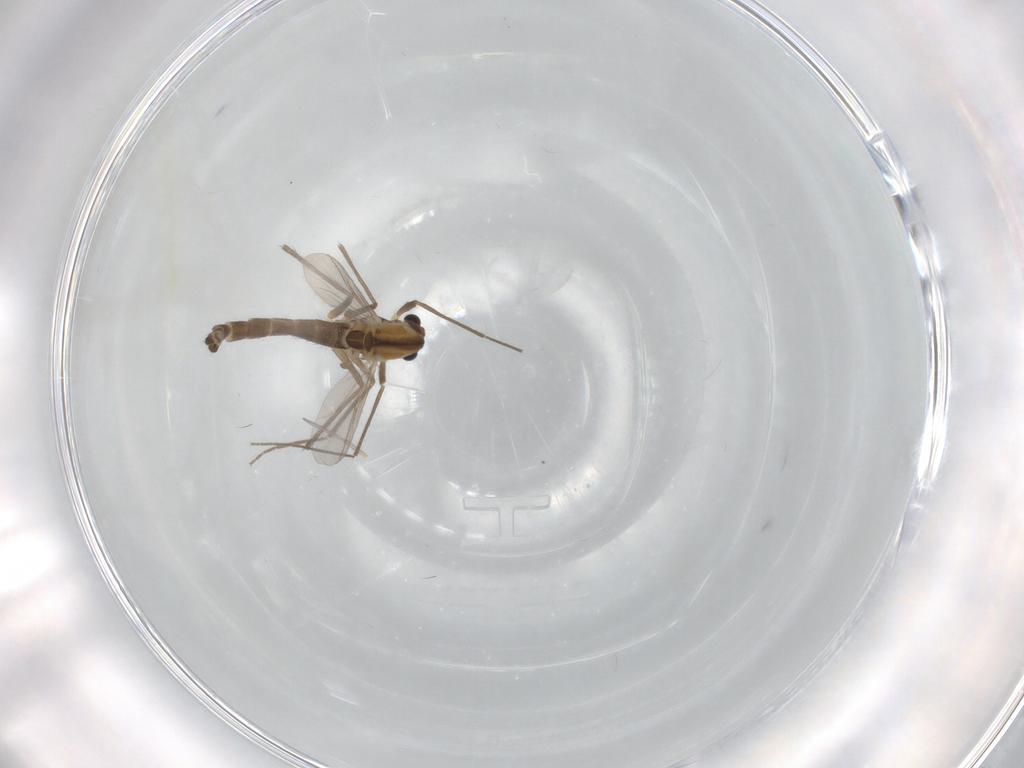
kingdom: Animalia
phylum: Arthropoda
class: Insecta
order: Diptera
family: Chironomidae
